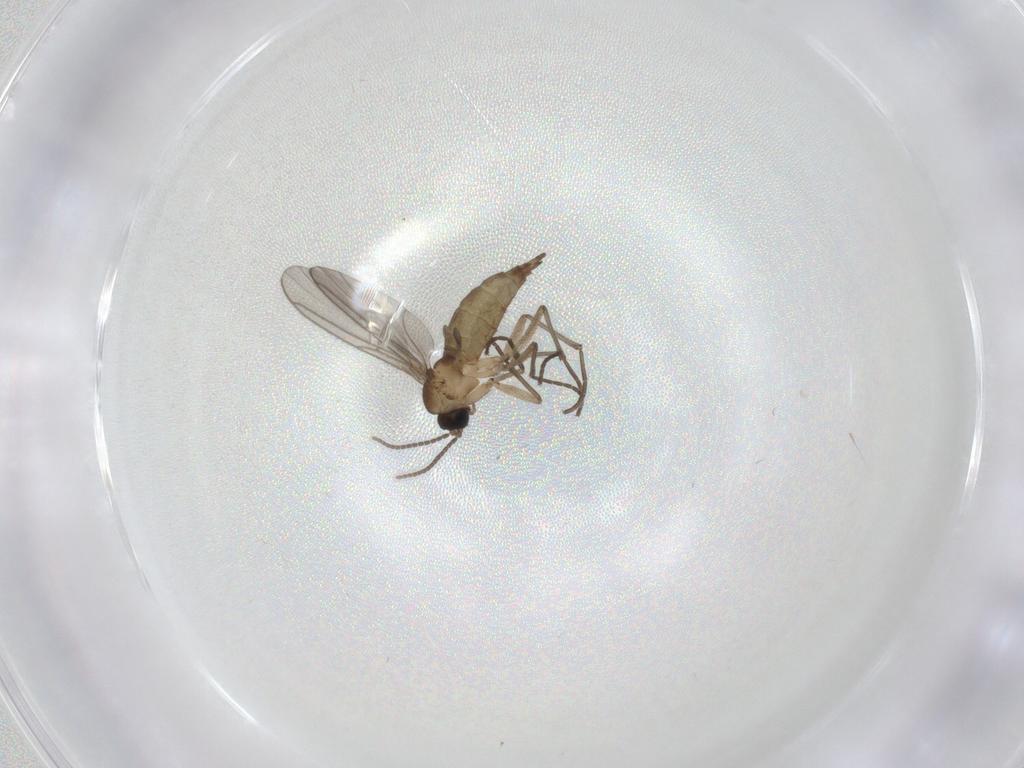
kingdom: Animalia
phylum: Arthropoda
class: Insecta
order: Diptera
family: Sciaridae
